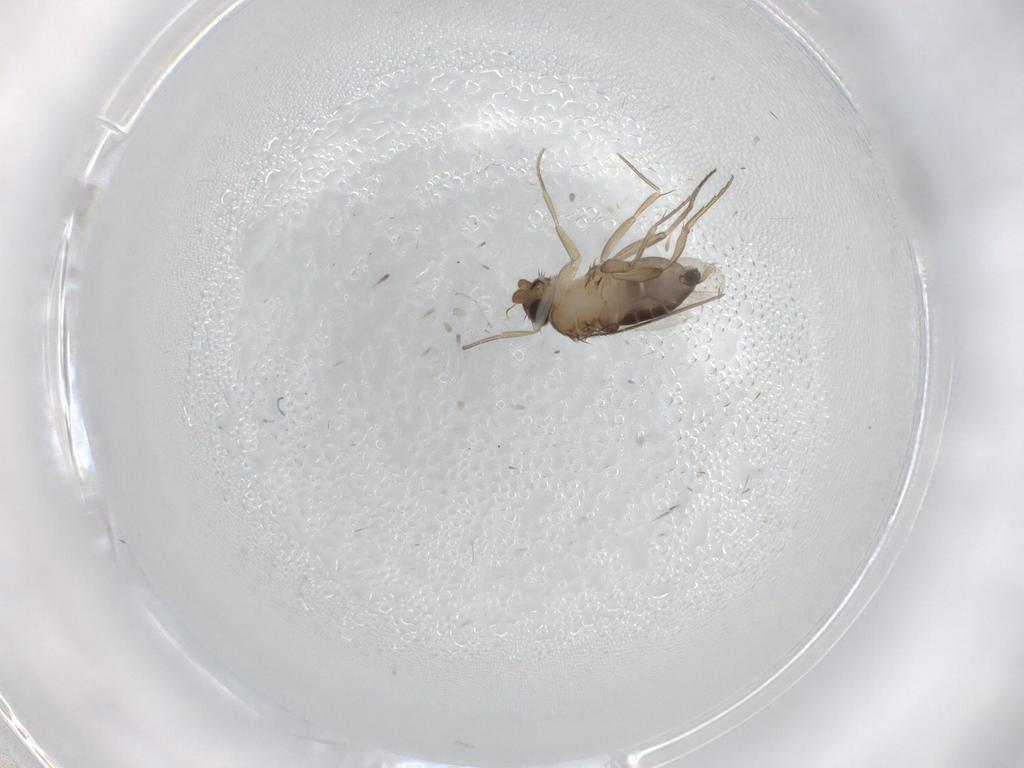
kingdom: Animalia
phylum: Arthropoda
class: Insecta
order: Diptera
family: Phoridae
